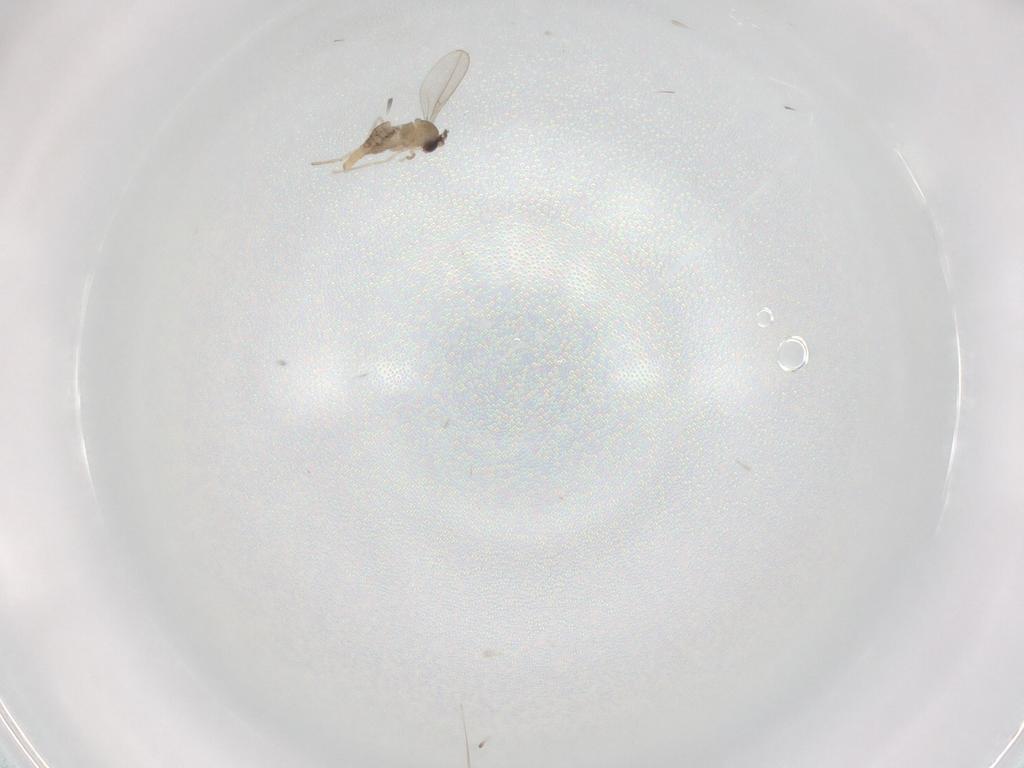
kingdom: Animalia
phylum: Arthropoda
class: Insecta
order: Diptera
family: Cecidomyiidae
